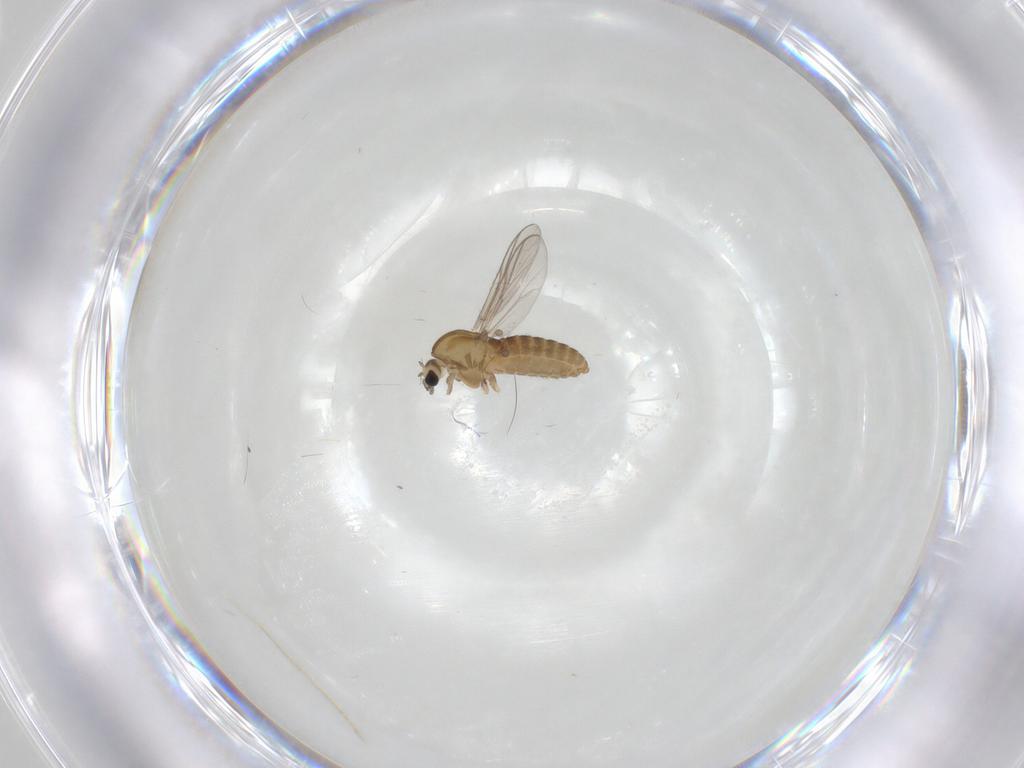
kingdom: Animalia
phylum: Arthropoda
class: Insecta
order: Diptera
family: Chironomidae
